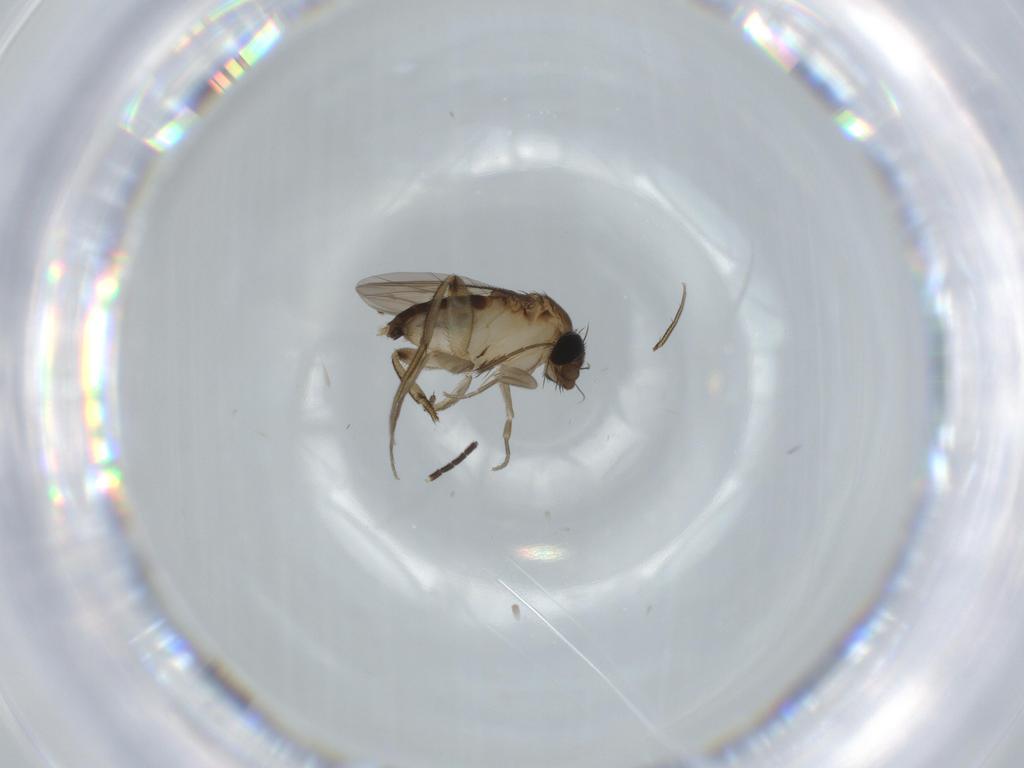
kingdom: Animalia
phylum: Arthropoda
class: Insecta
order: Diptera
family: Phoridae
